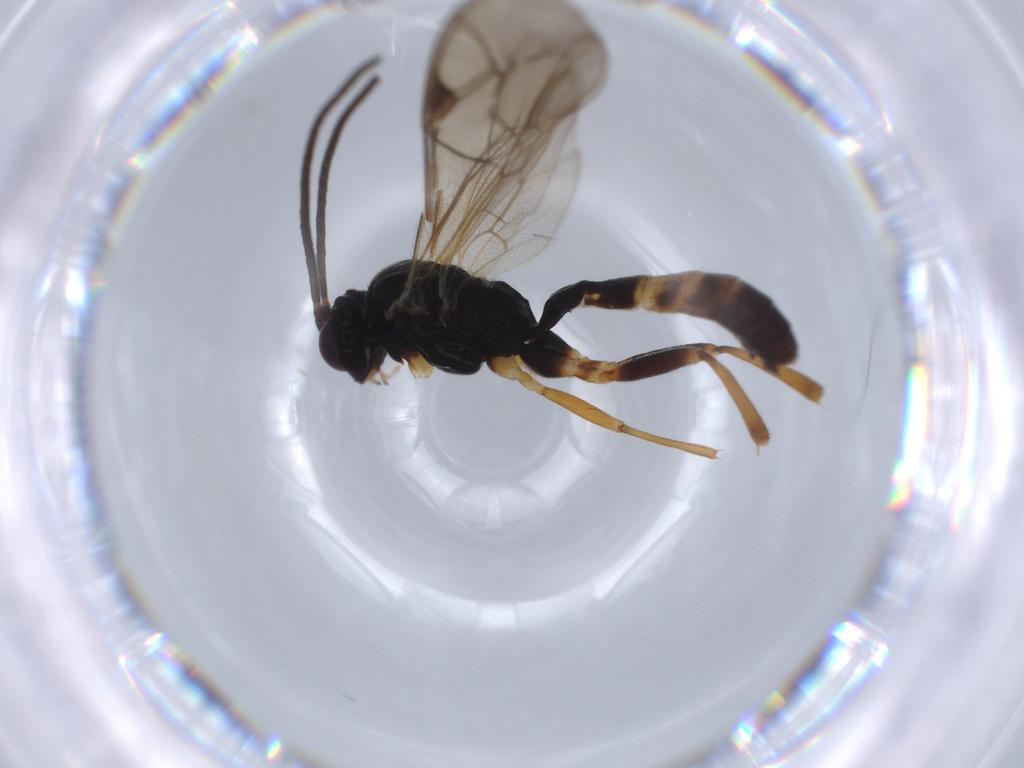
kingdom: Animalia
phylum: Arthropoda
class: Insecta
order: Hymenoptera
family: Ichneumonidae
